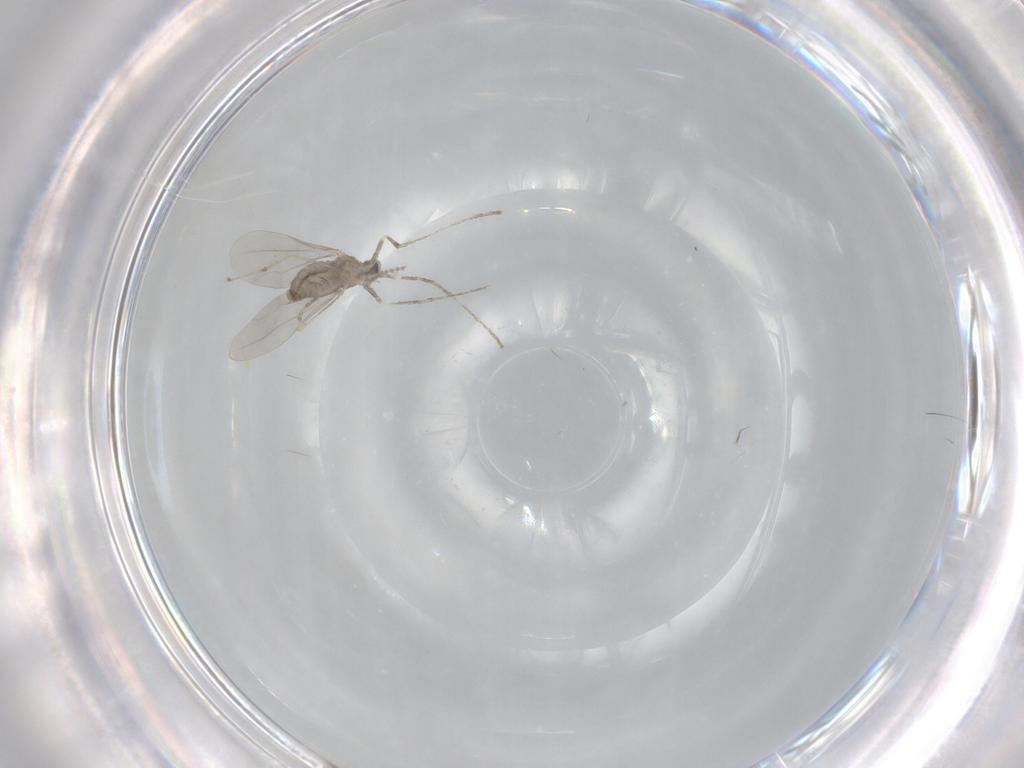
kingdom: Animalia
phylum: Arthropoda
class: Insecta
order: Diptera
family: Cecidomyiidae
